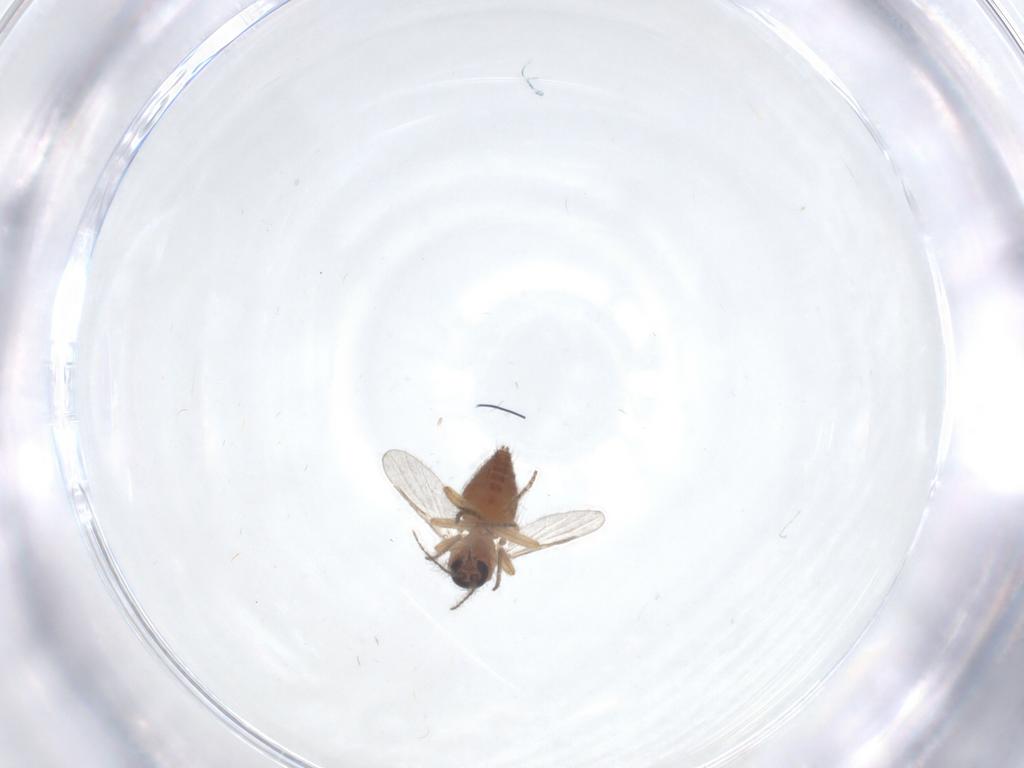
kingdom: Animalia
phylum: Arthropoda
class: Insecta
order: Diptera
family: Ceratopogonidae
